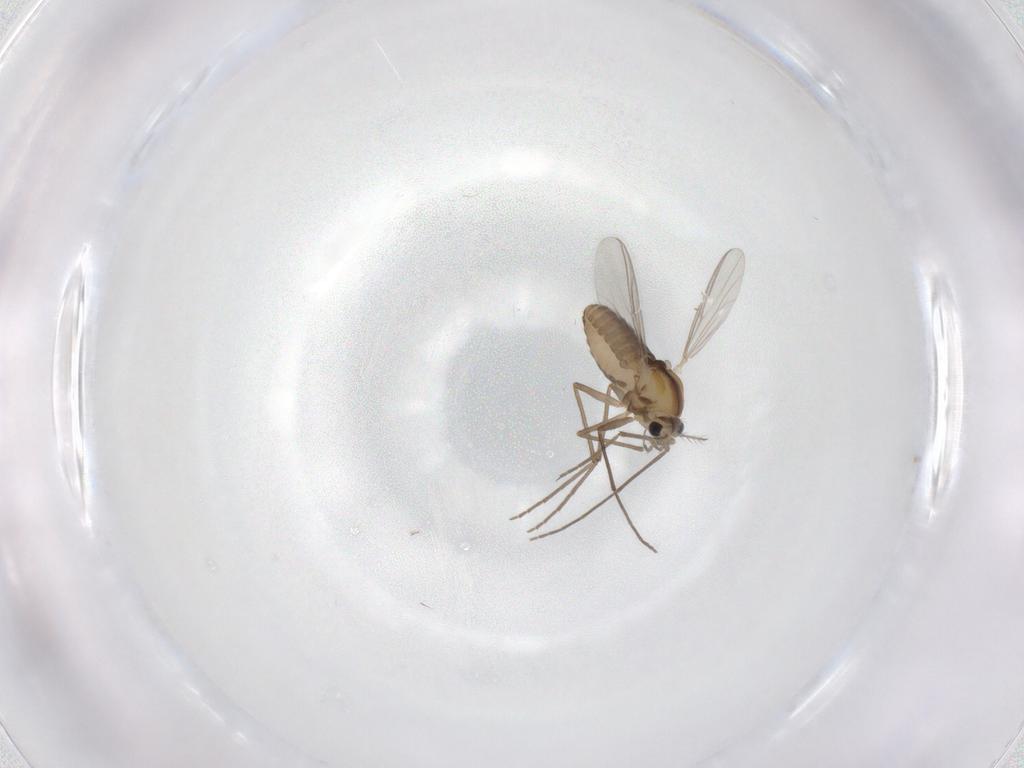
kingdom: Animalia
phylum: Arthropoda
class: Insecta
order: Diptera
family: Chironomidae
